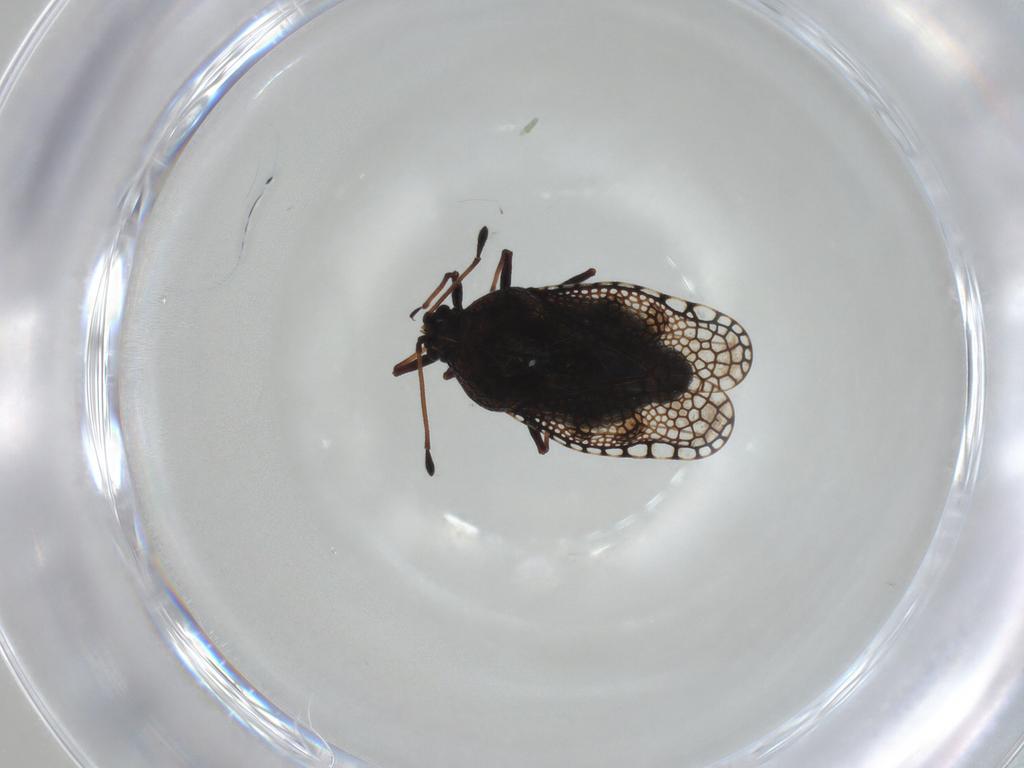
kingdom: Animalia
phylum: Arthropoda
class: Insecta
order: Hemiptera
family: Tingidae
